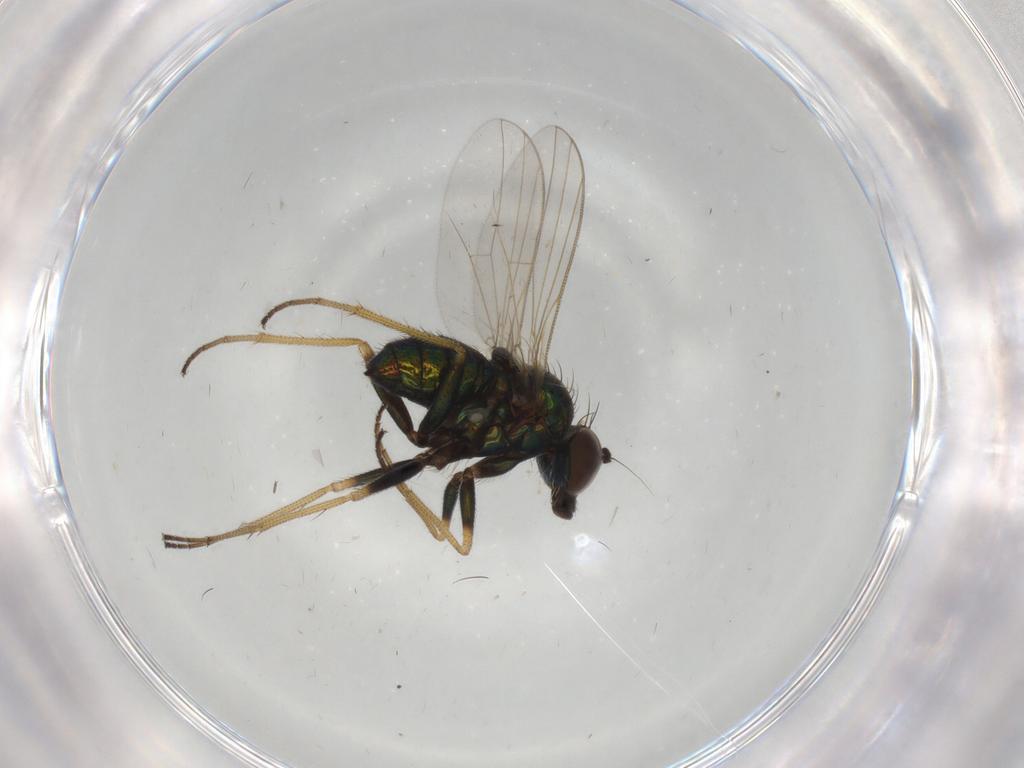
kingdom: Animalia
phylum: Arthropoda
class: Insecta
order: Diptera
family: Dolichopodidae
